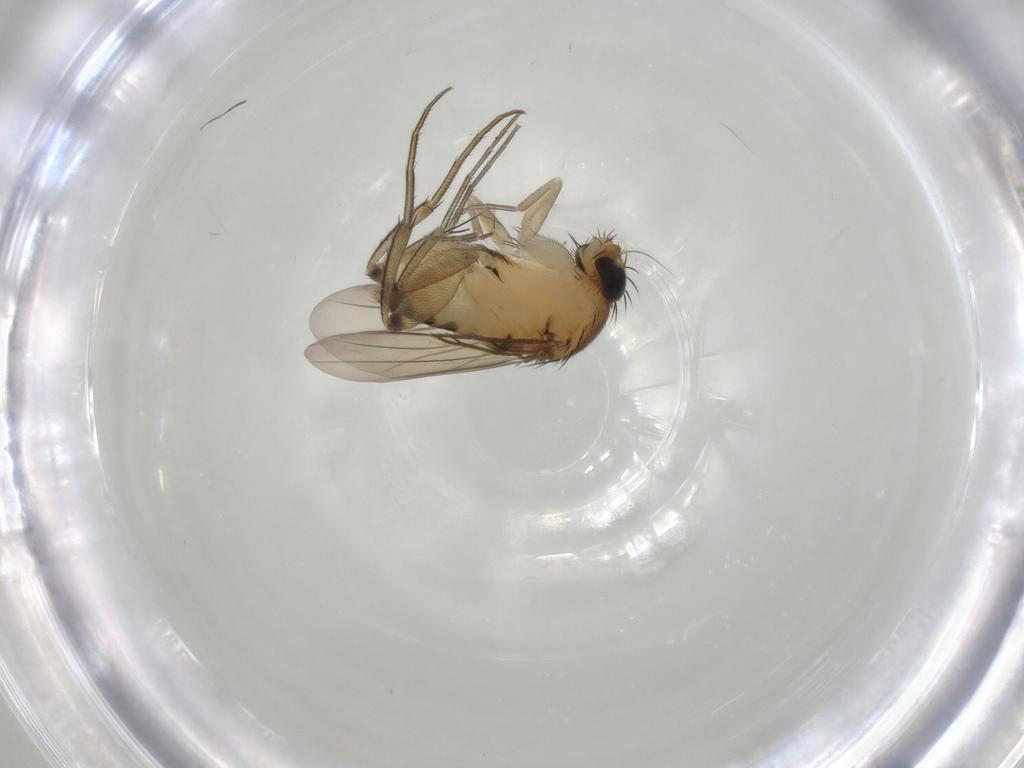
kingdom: Animalia
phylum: Arthropoda
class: Insecta
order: Diptera
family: Phoridae
